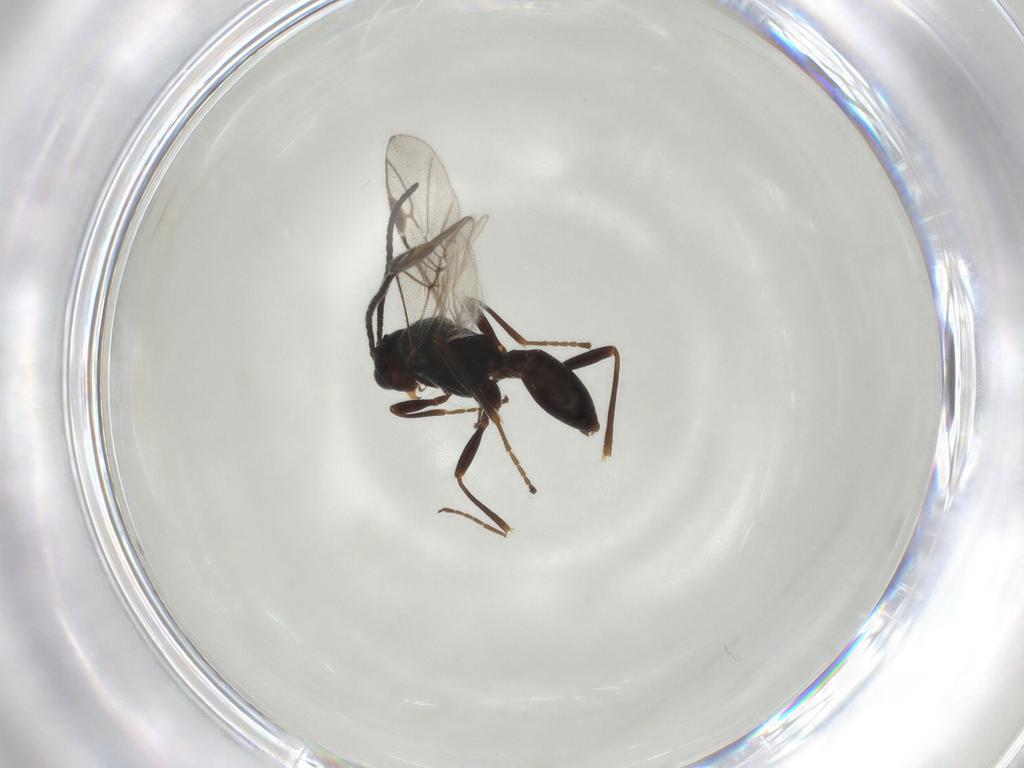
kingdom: Animalia
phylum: Arthropoda
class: Insecta
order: Hymenoptera
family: Braconidae
